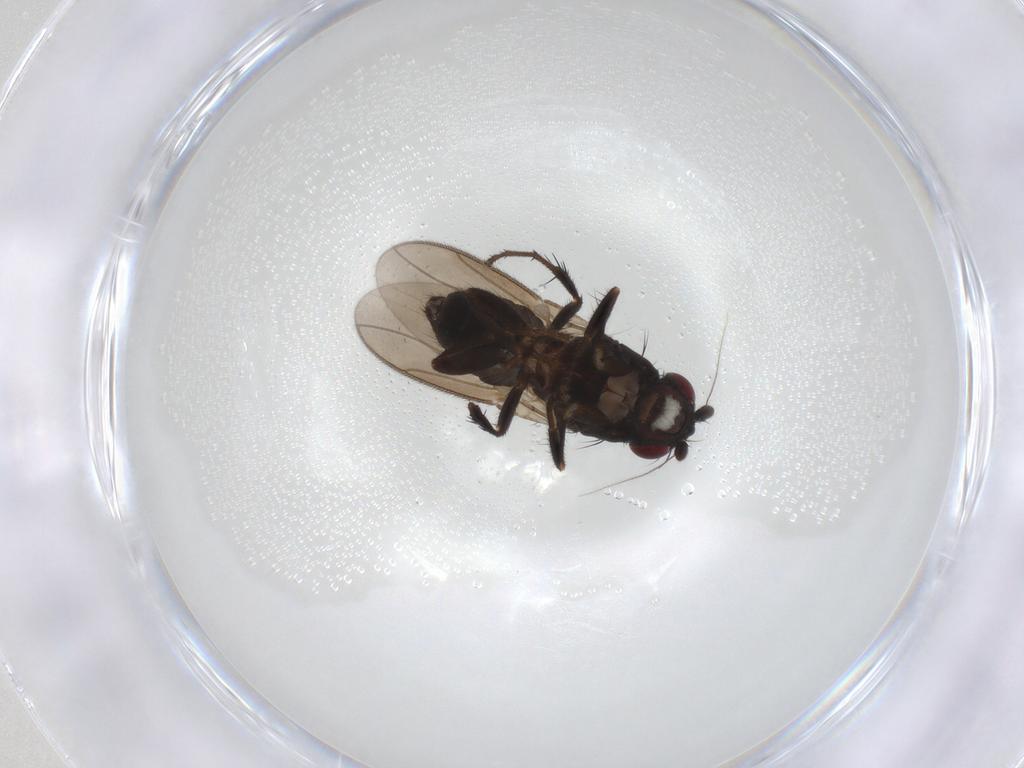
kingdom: Animalia
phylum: Arthropoda
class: Insecta
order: Diptera
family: Sphaeroceridae
